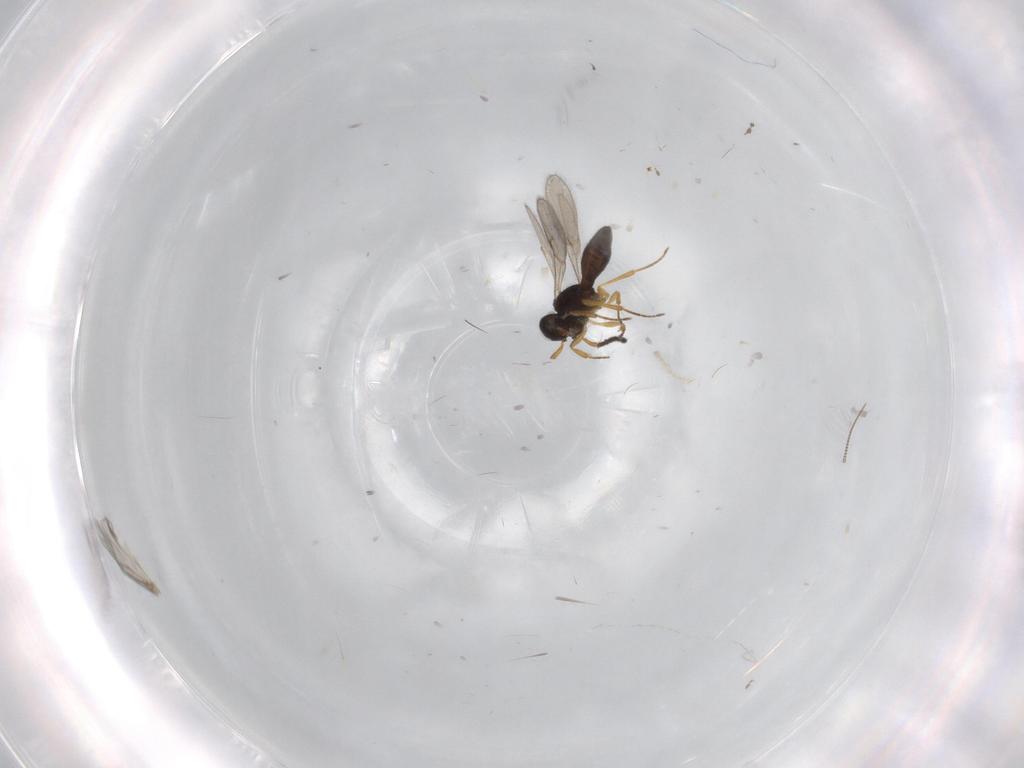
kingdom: Animalia
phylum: Arthropoda
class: Insecta
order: Hymenoptera
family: Scelionidae
